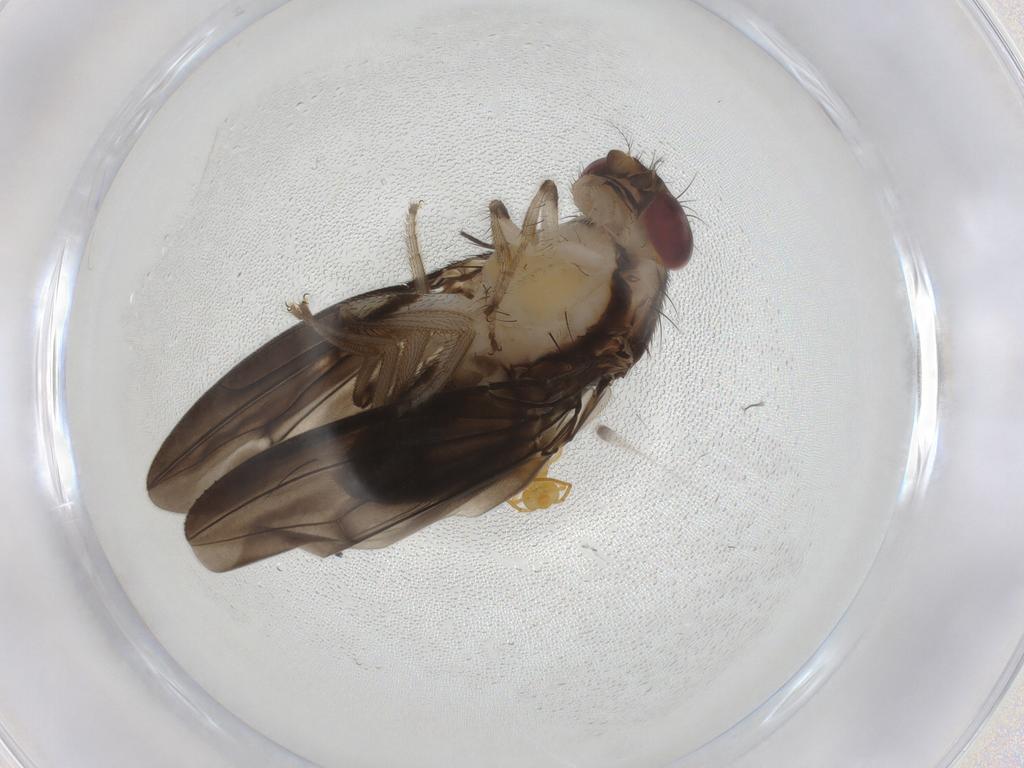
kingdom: Animalia
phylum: Arthropoda
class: Insecta
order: Diptera
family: Drosophilidae
